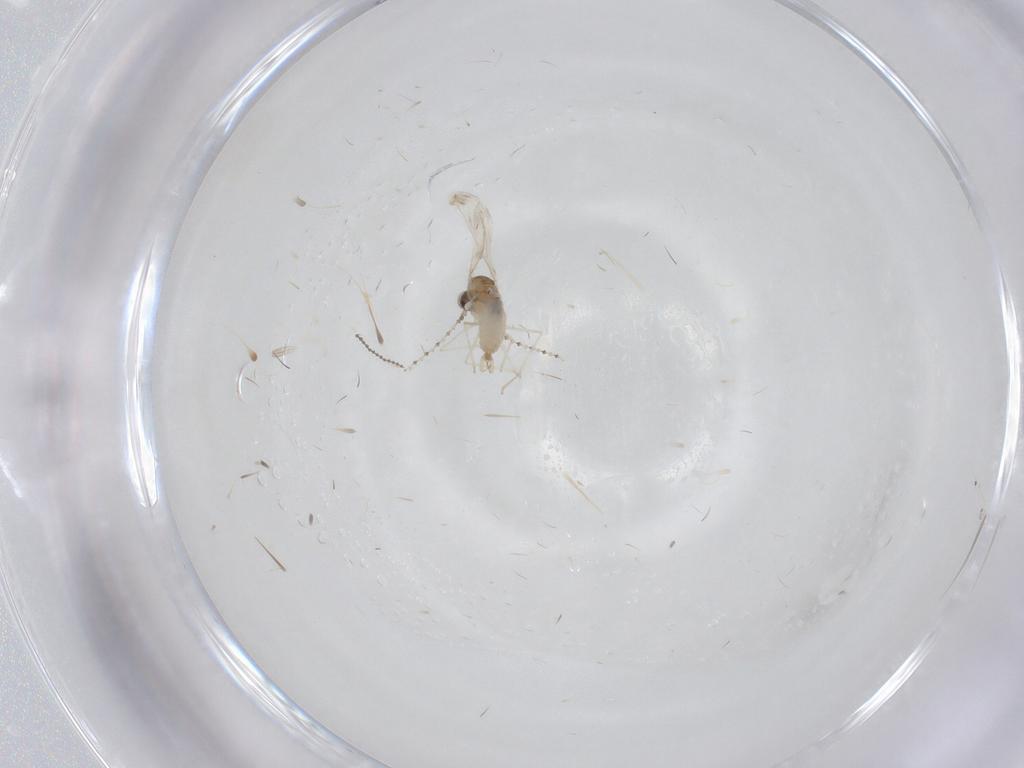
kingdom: Animalia
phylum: Arthropoda
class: Insecta
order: Diptera
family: Cecidomyiidae
